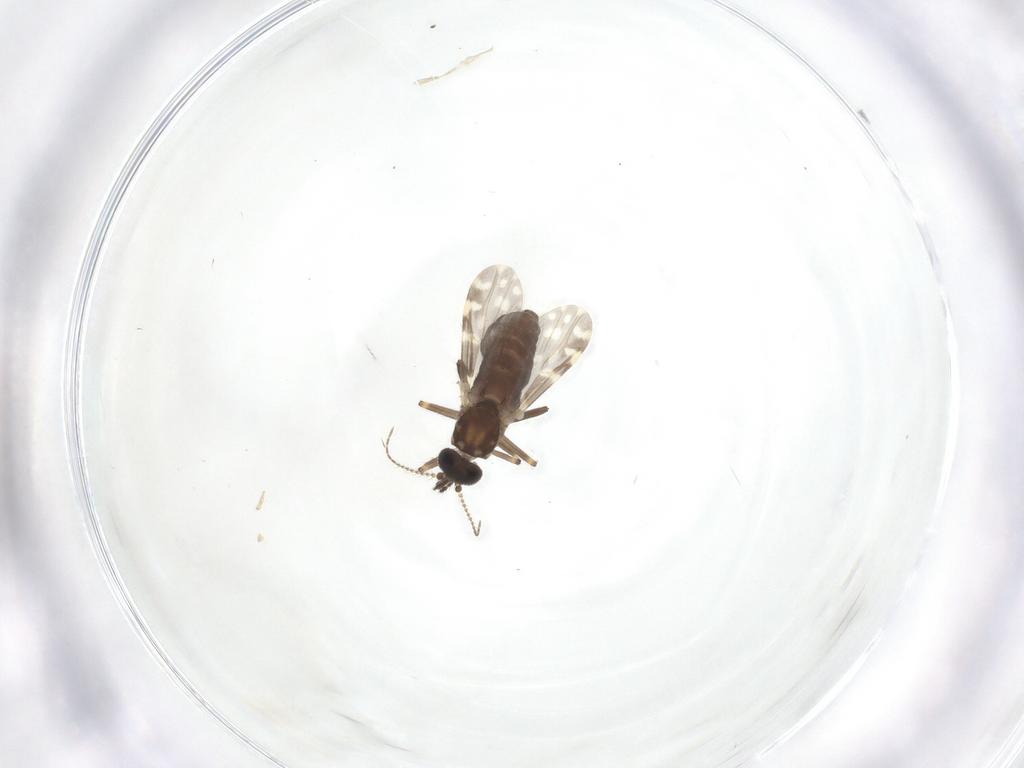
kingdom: Animalia
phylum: Arthropoda
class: Insecta
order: Diptera
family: Ceratopogonidae
